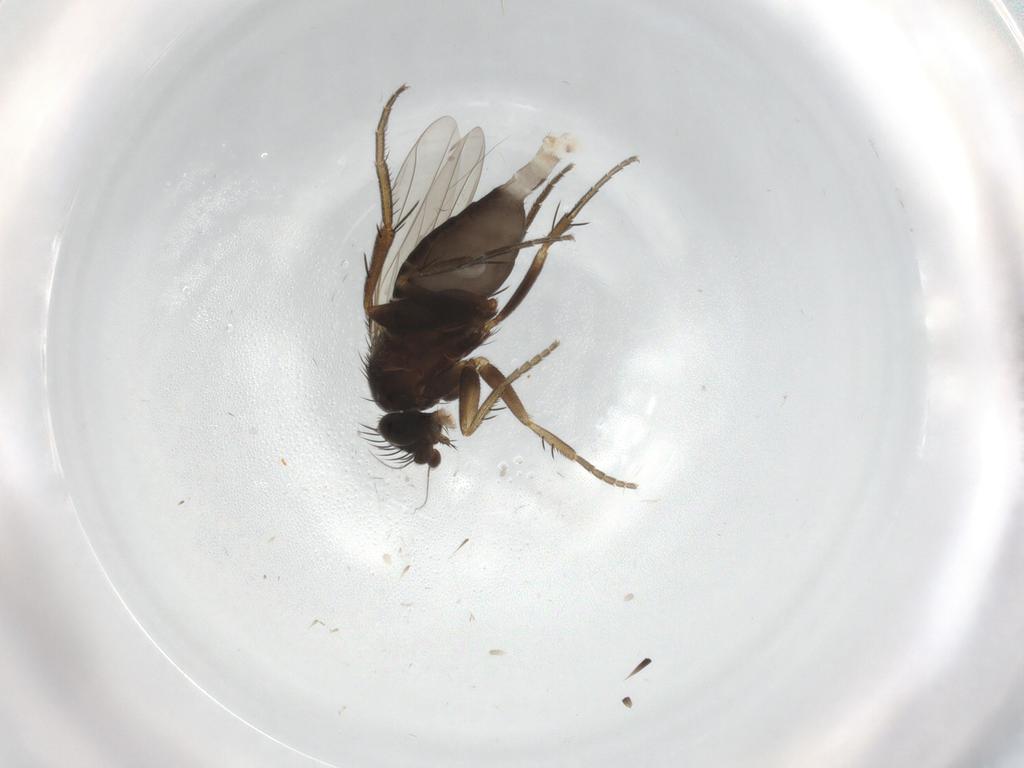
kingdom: Animalia
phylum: Arthropoda
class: Insecta
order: Diptera
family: Phoridae
